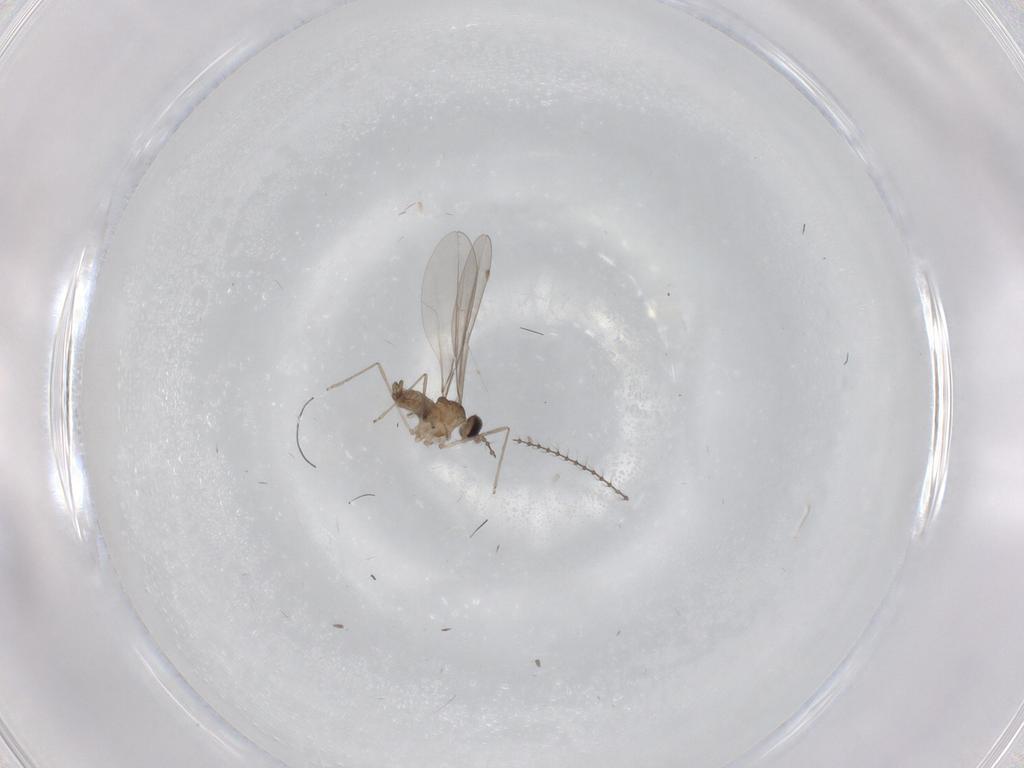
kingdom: Animalia
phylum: Arthropoda
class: Insecta
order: Diptera
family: Cecidomyiidae
